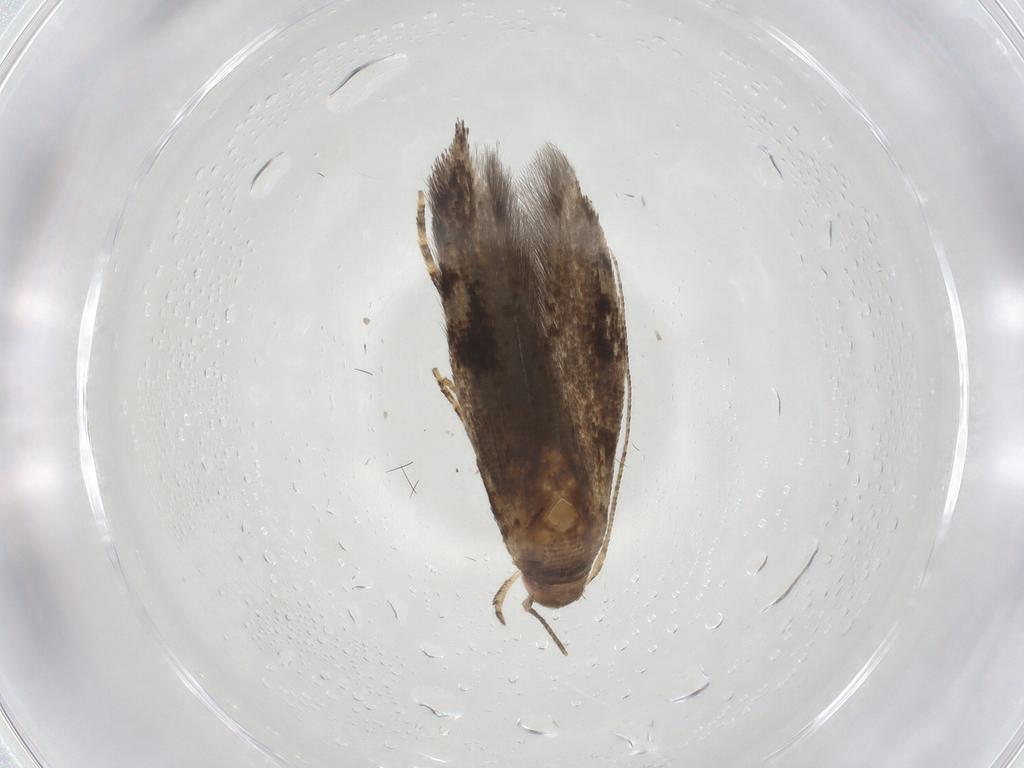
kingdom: Animalia
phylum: Arthropoda
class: Insecta
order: Lepidoptera
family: Momphidae
